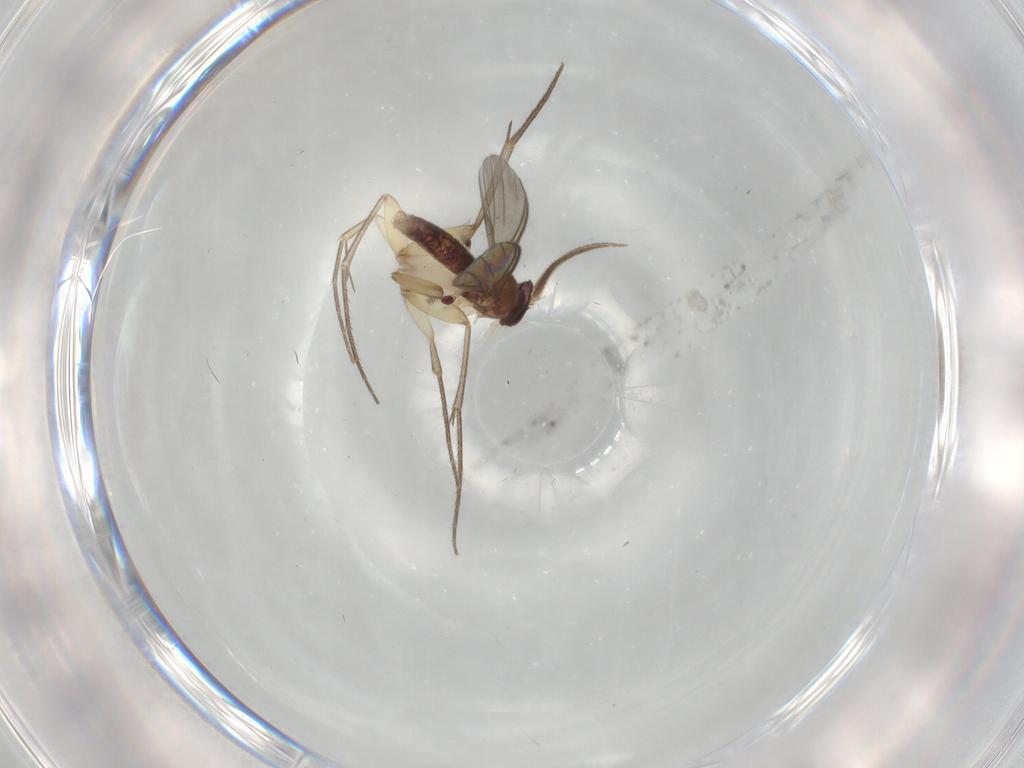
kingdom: Animalia
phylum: Arthropoda
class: Insecta
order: Diptera
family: Mycetophilidae
